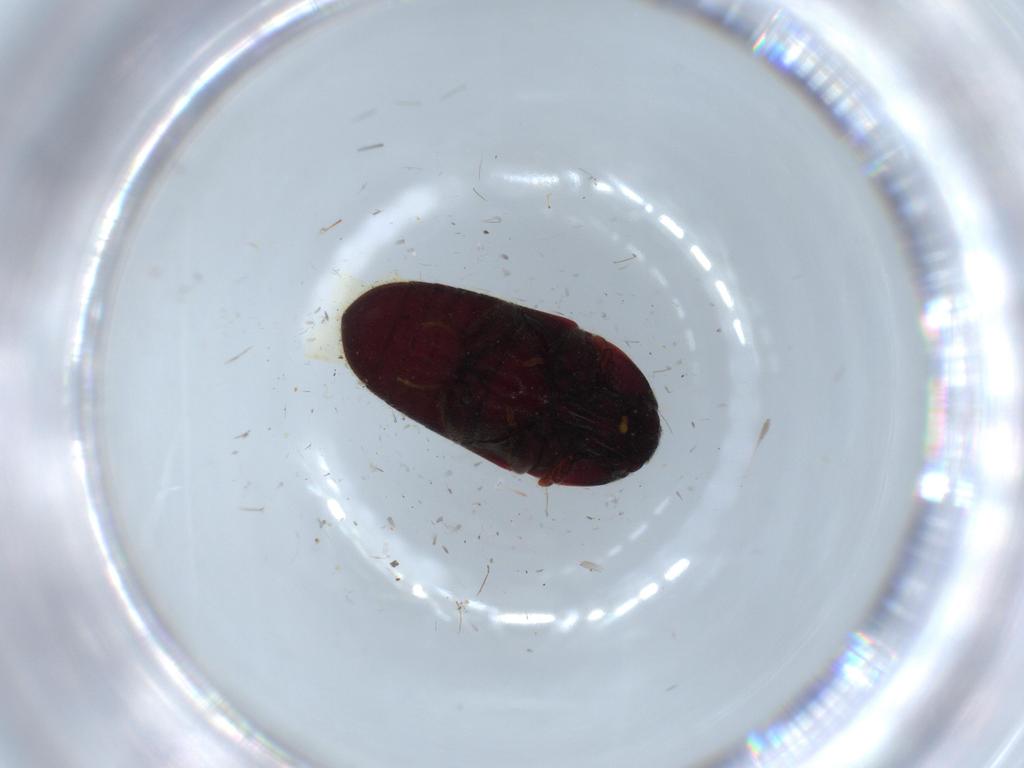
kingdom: Animalia
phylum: Arthropoda
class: Insecta
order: Coleoptera
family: Throscidae
